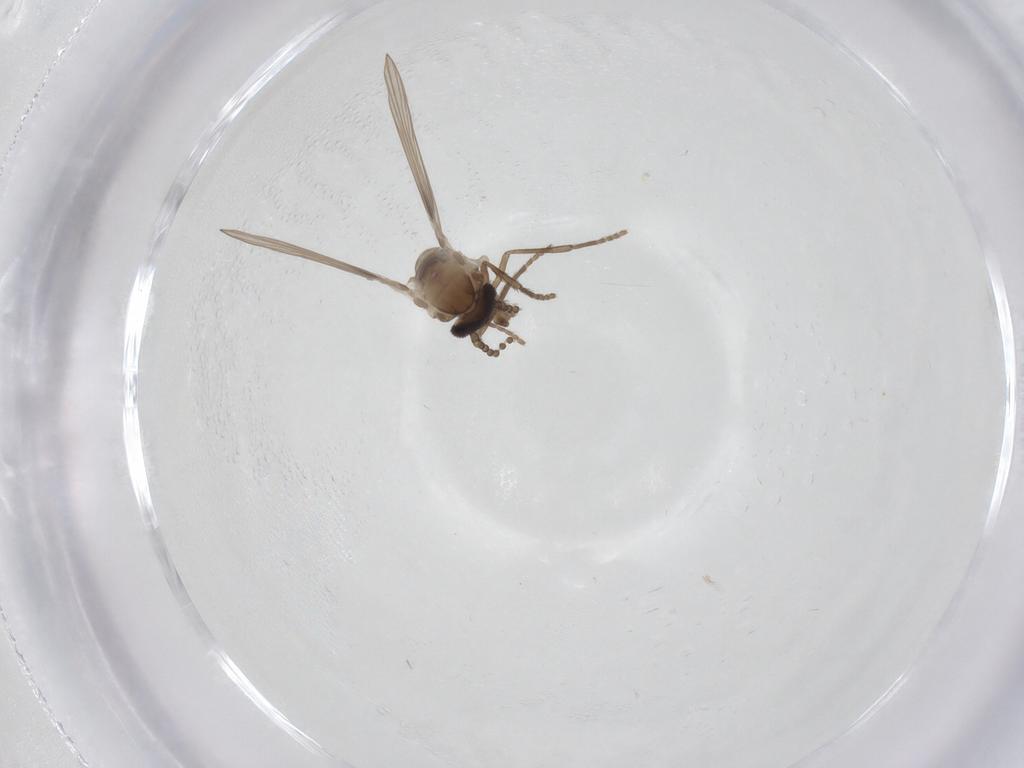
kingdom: Animalia
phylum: Arthropoda
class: Insecta
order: Diptera
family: Psychodidae
